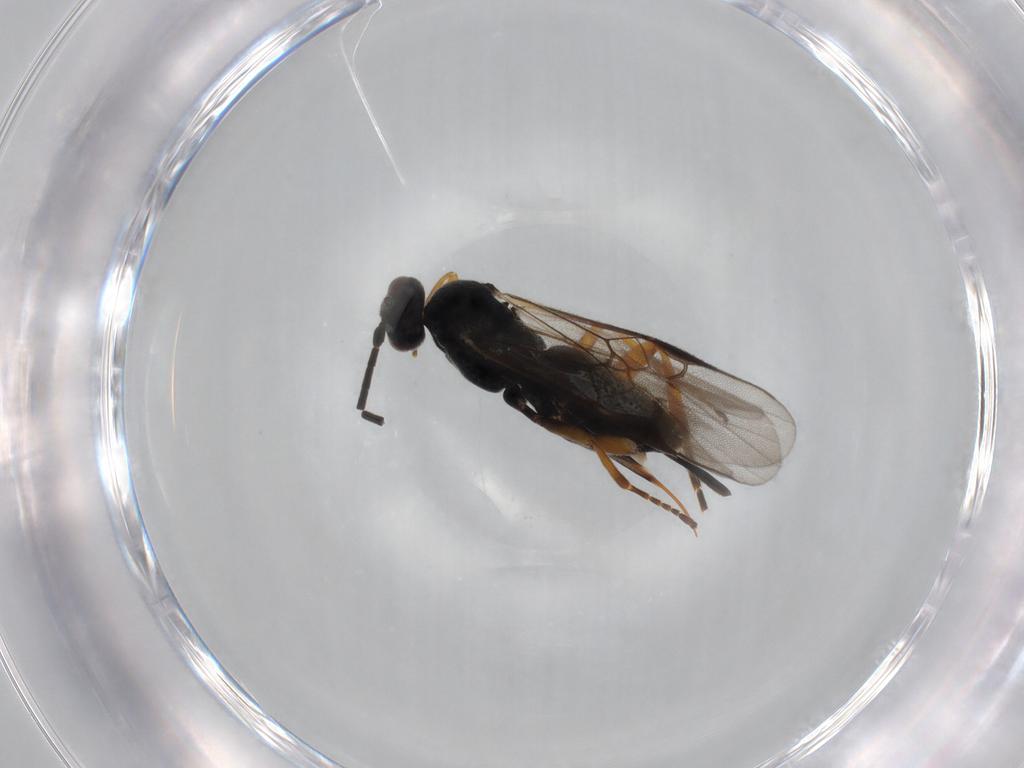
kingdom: Animalia
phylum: Arthropoda
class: Insecta
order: Hymenoptera
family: Braconidae
